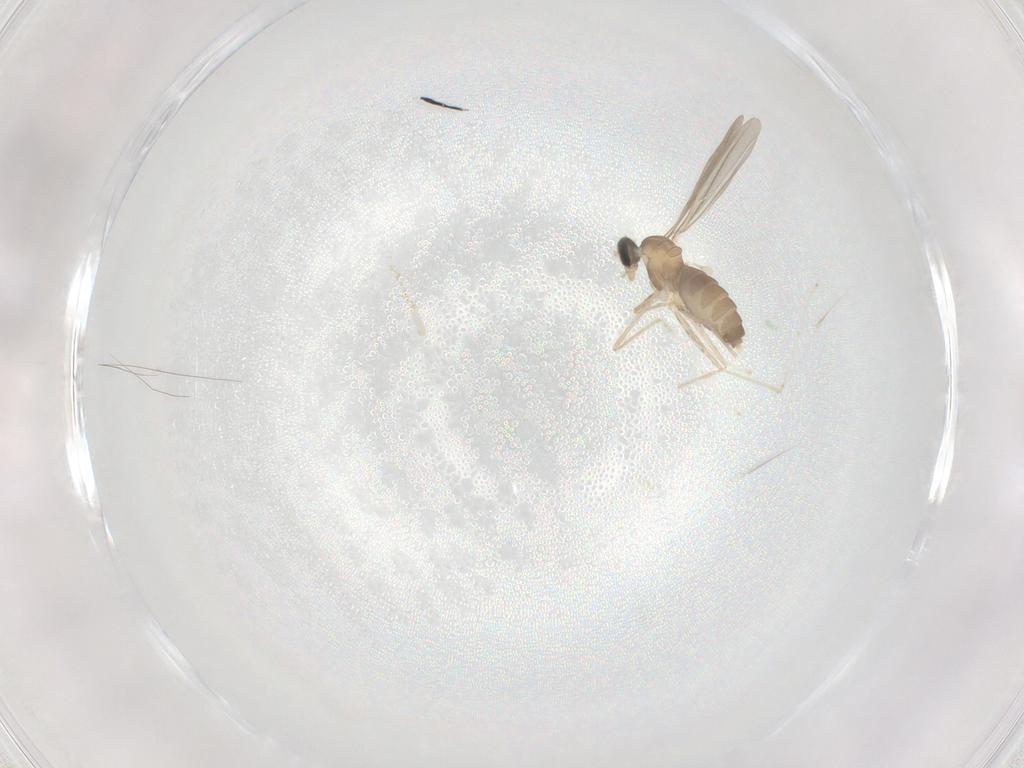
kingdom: Animalia
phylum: Arthropoda
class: Insecta
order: Diptera
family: Cecidomyiidae
